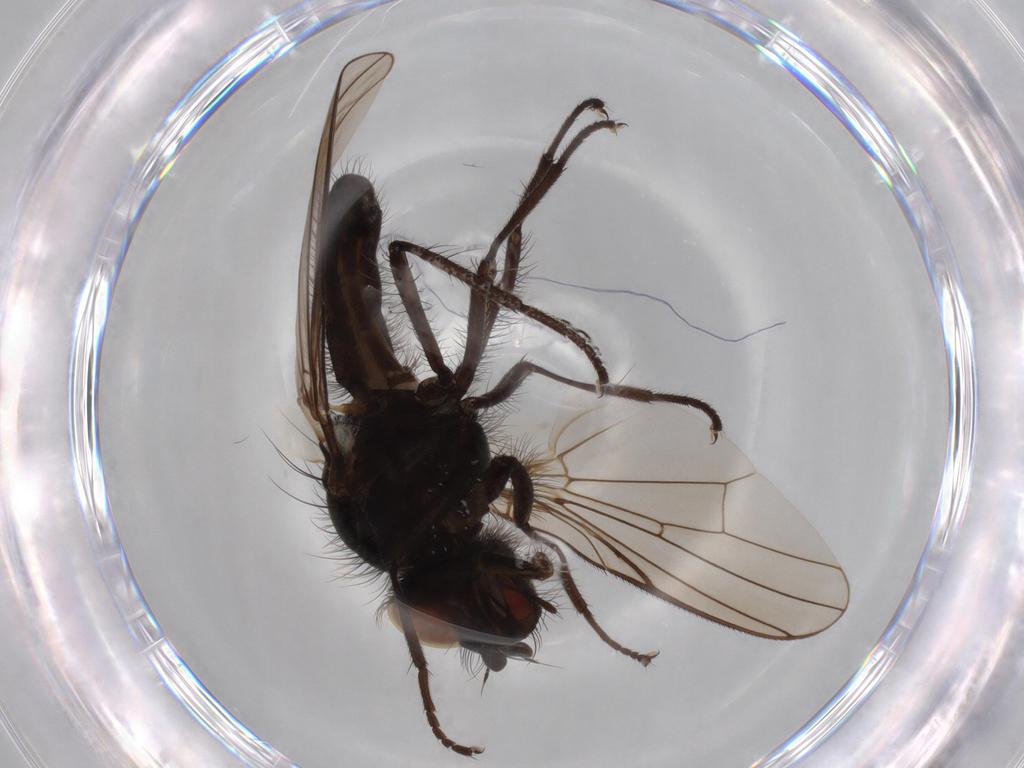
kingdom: Animalia
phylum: Arthropoda
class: Insecta
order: Diptera
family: Anthomyiidae
